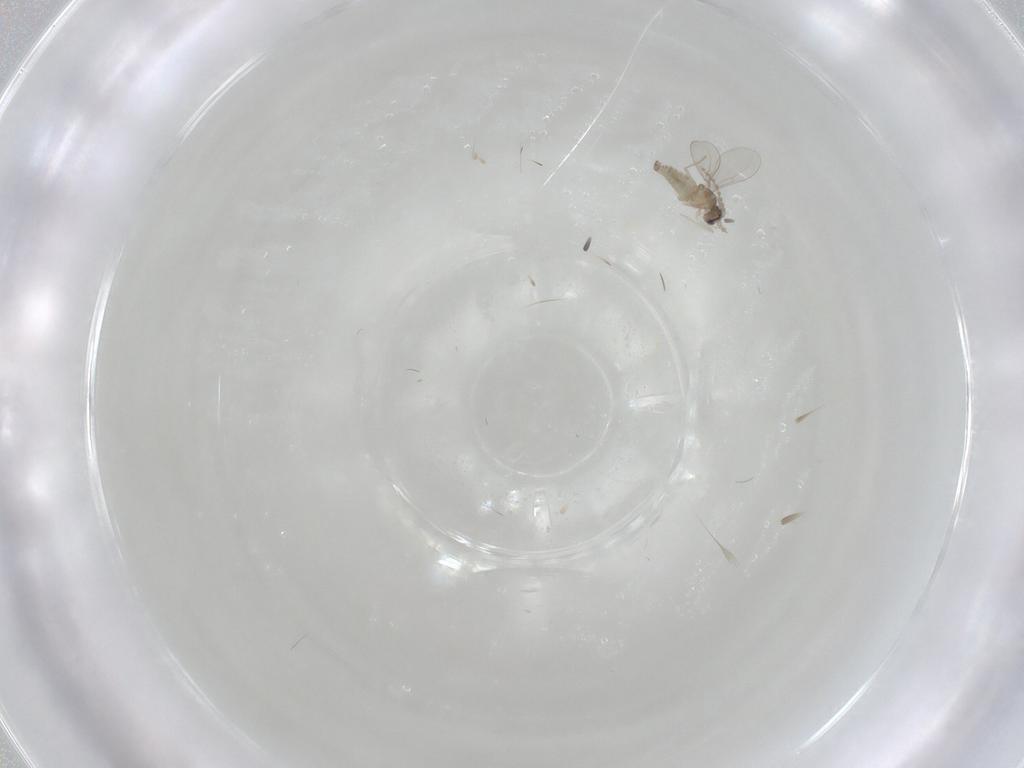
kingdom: Animalia
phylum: Arthropoda
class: Insecta
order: Diptera
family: Cecidomyiidae
